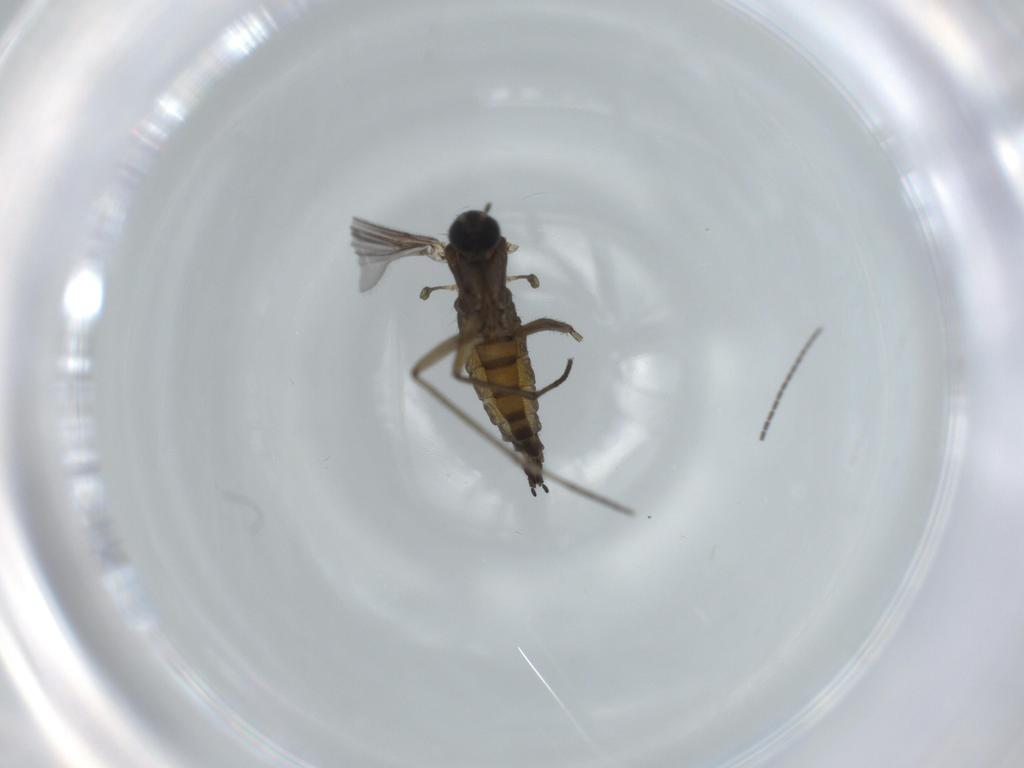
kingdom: Animalia
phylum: Arthropoda
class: Insecta
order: Diptera
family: Sciaridae
